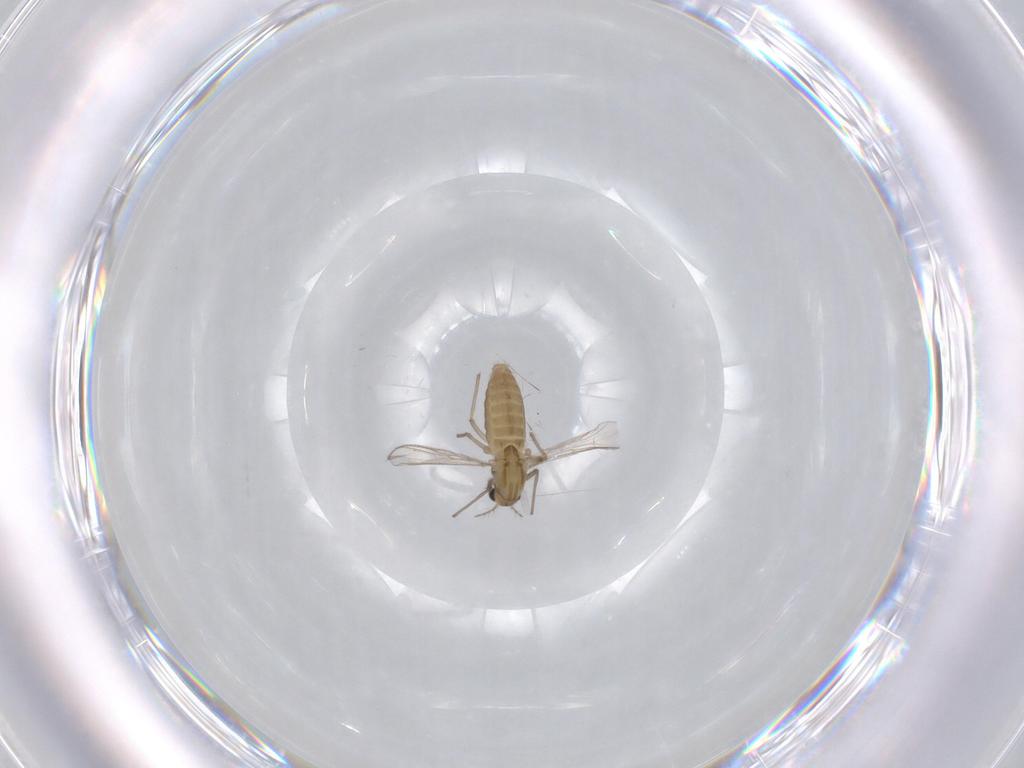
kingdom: Animalia
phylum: Arthropoda
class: Insecta
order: Diptera
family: Chironomidae
